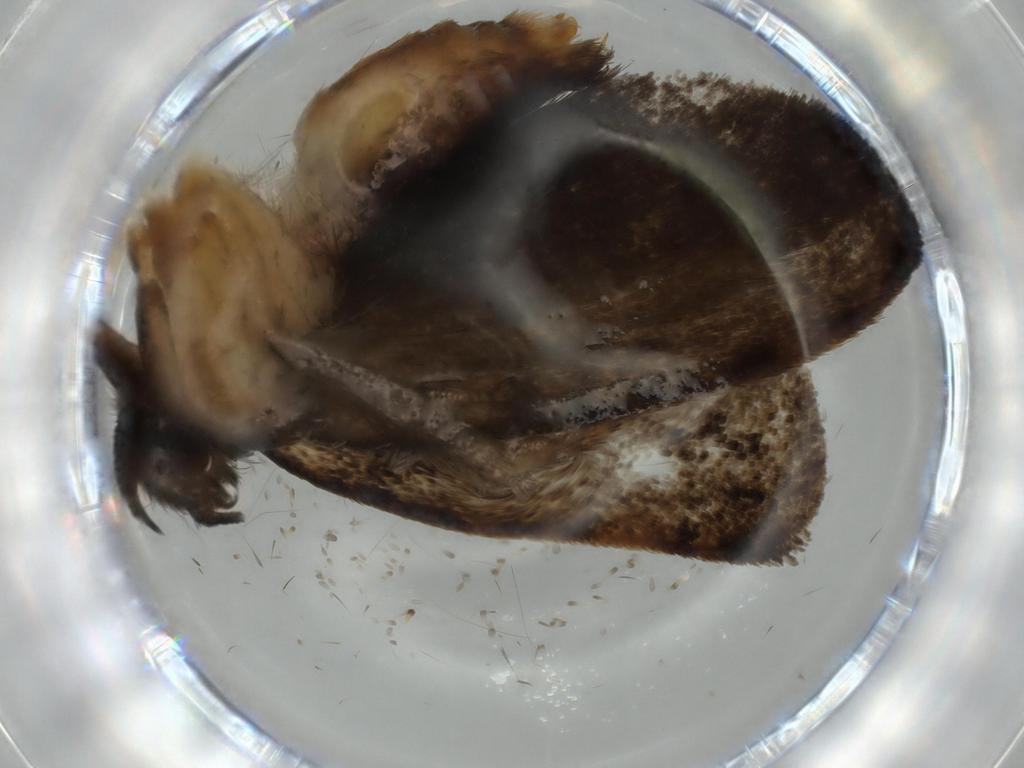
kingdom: Animalia
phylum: Arthropoda
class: Insecta
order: Lepidoptera
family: Tineidae
